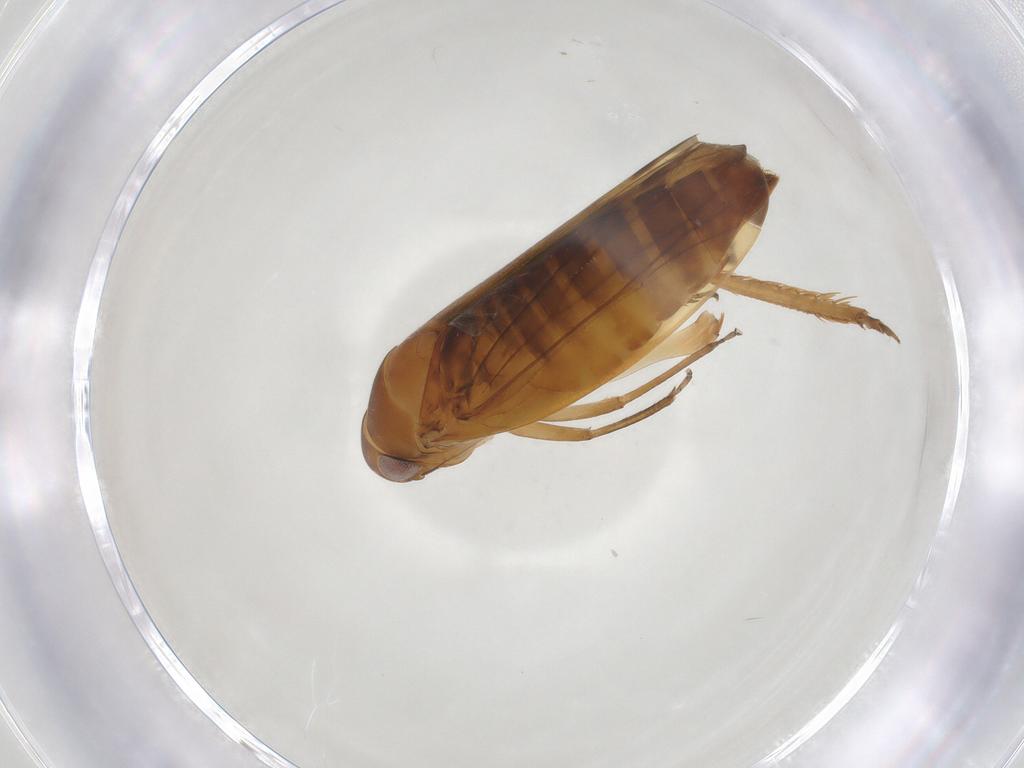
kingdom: Animalia
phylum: Arthropoda
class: Insecta
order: Hemiptera
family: Cicadellidae
